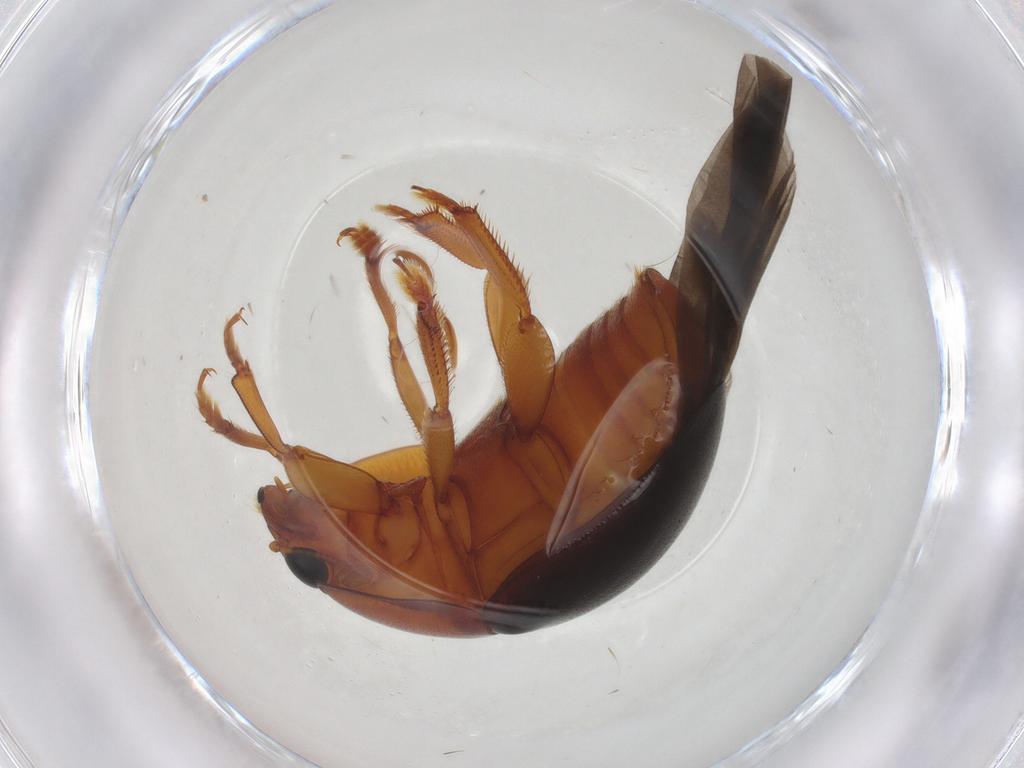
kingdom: Animalia
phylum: Arthropoda
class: Insecta
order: Coleoptera
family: Nitidulidae
